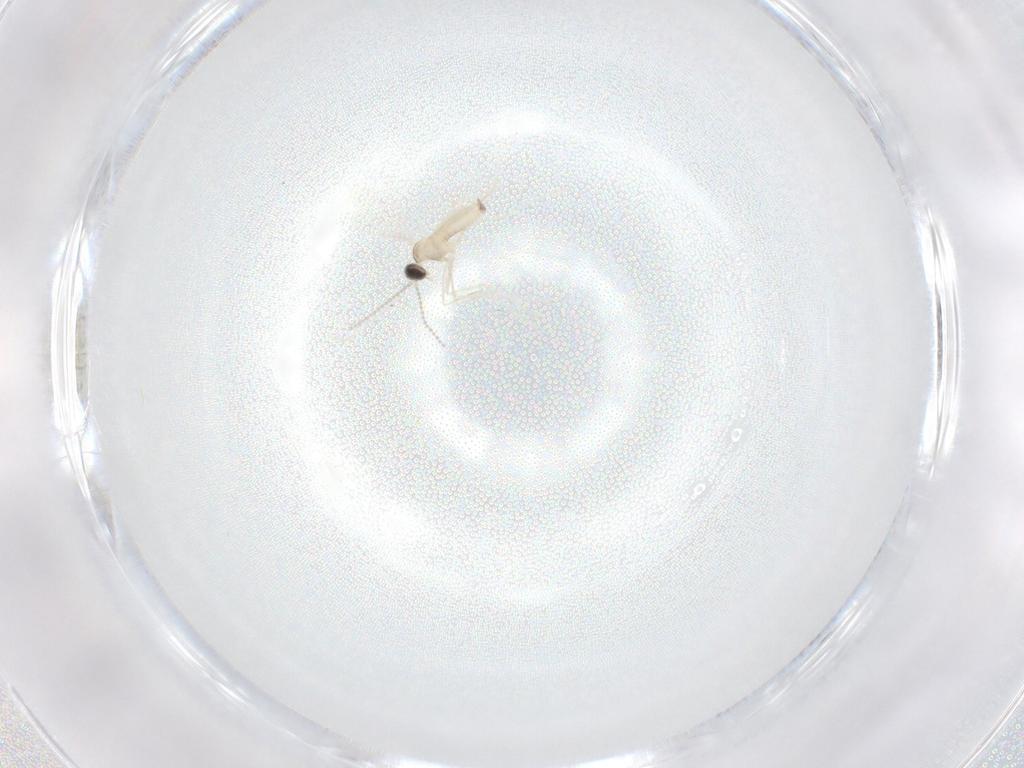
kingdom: Animalia
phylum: Arthropoda
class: Insecta
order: Diptera
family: Cecidomyiidae
